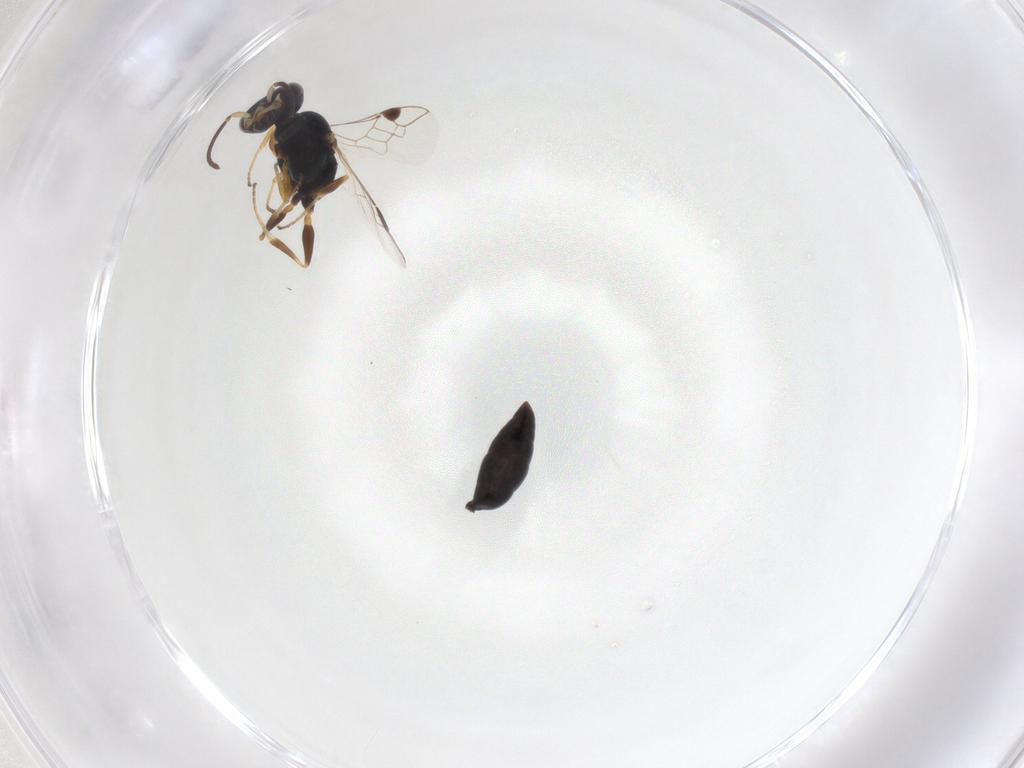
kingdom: Animalia
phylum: Arthropoda
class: Insecta
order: Hymenoptera
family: Pemphredonidae
